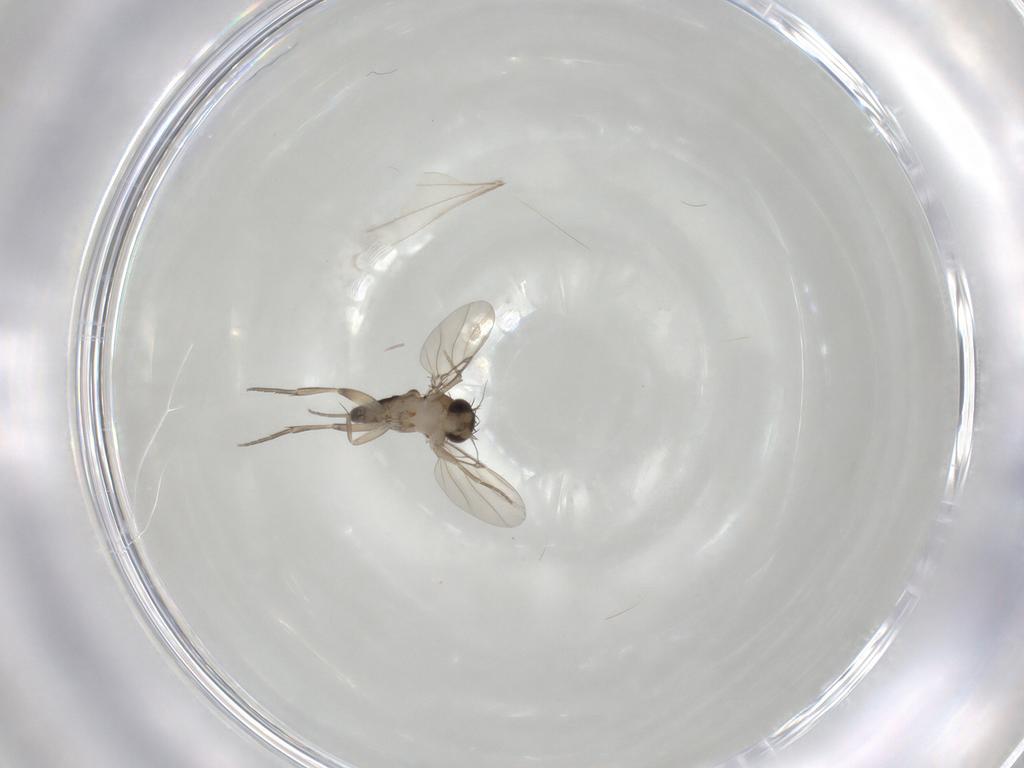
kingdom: Animalia
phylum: Arthropoda
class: Insecta
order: Diptera
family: Phoridae
